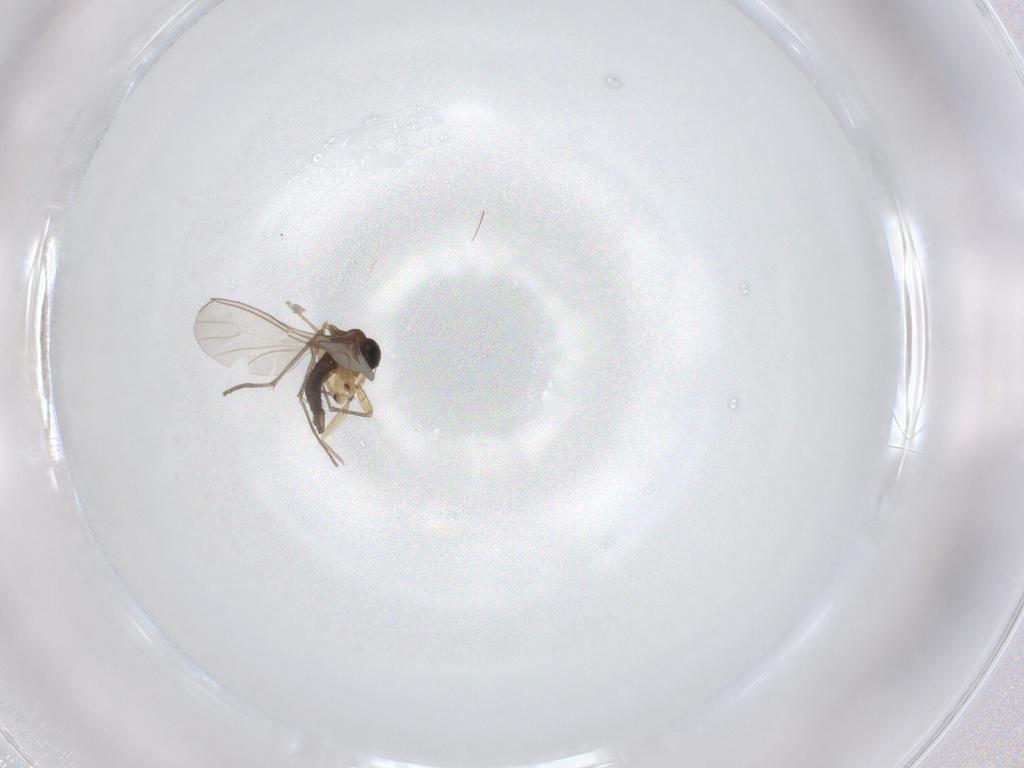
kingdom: Animalia
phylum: Arthropoda
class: Insecta
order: Diptera
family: Sciaridae
